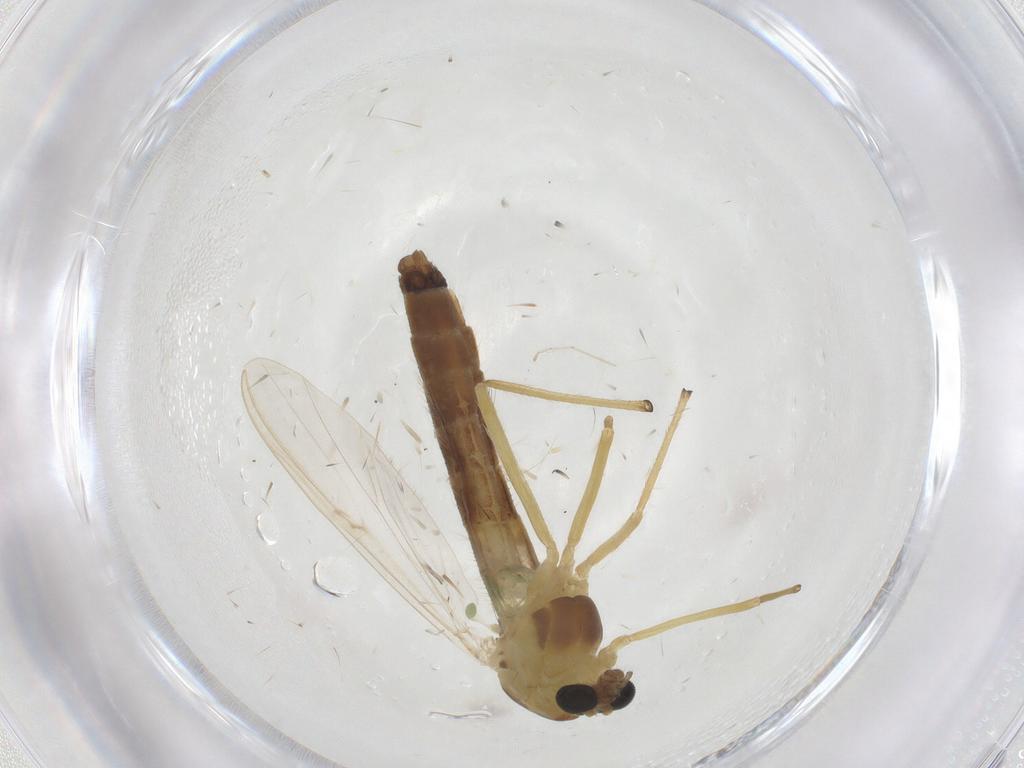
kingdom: Animalia
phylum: Arthropoda
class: Insecta
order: Diptera
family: Chironomidae
